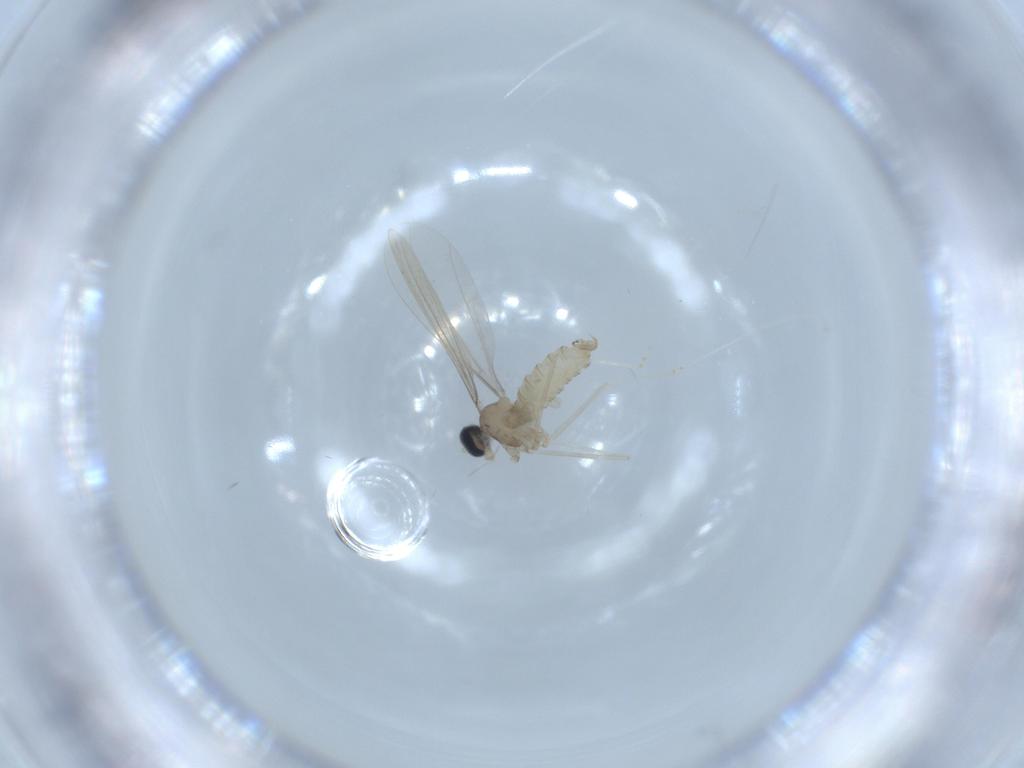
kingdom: Animalia
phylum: Arthropoda
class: Insecta
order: Diptera
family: Cecidomyiidae
